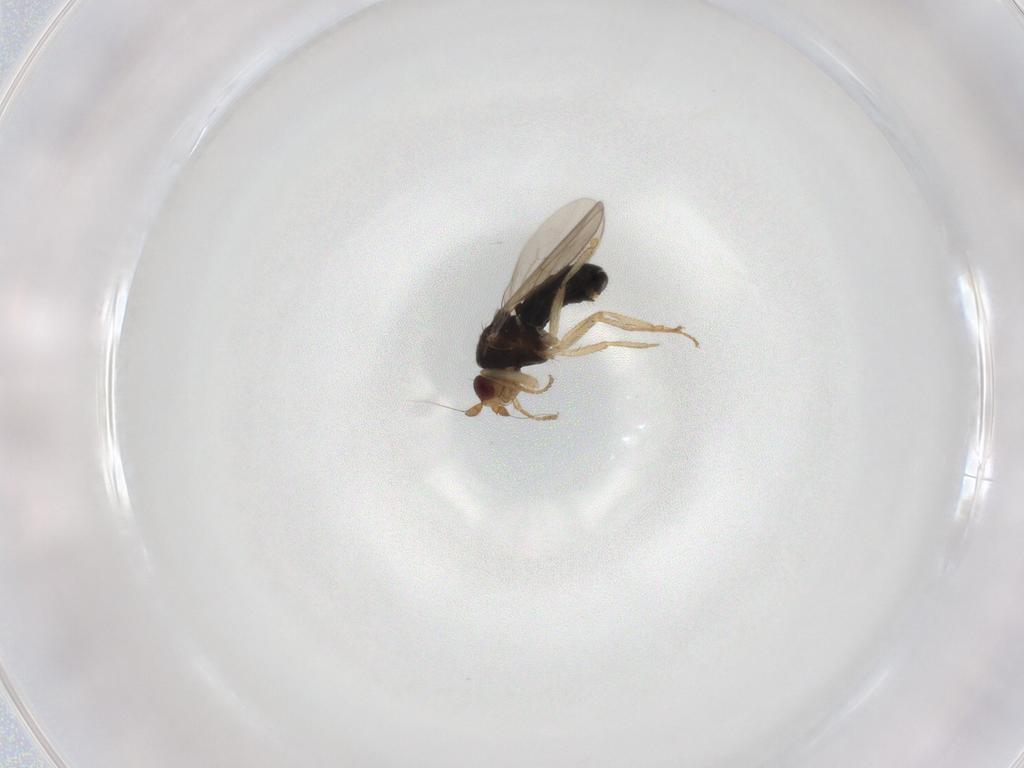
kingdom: Animalia
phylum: Arthropoda
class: Insecta
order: Diptera
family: Sphaeroceridae
